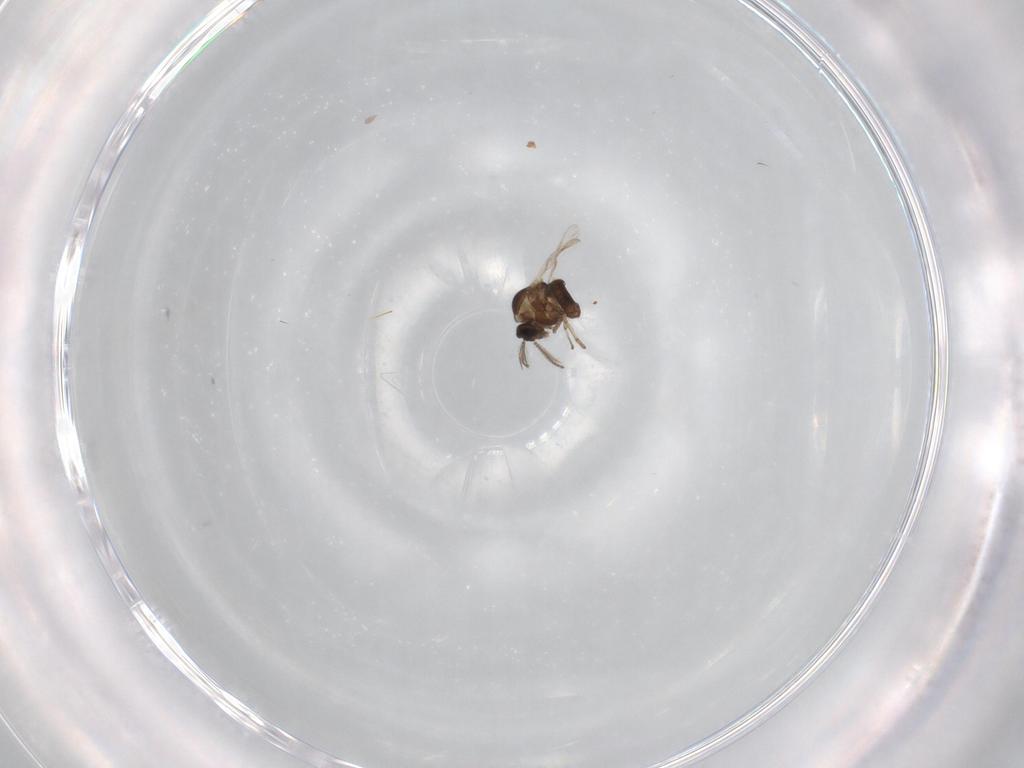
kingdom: Animalia
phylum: Arthropoda
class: Insecta
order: Diptera
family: Ceratopogonidae
